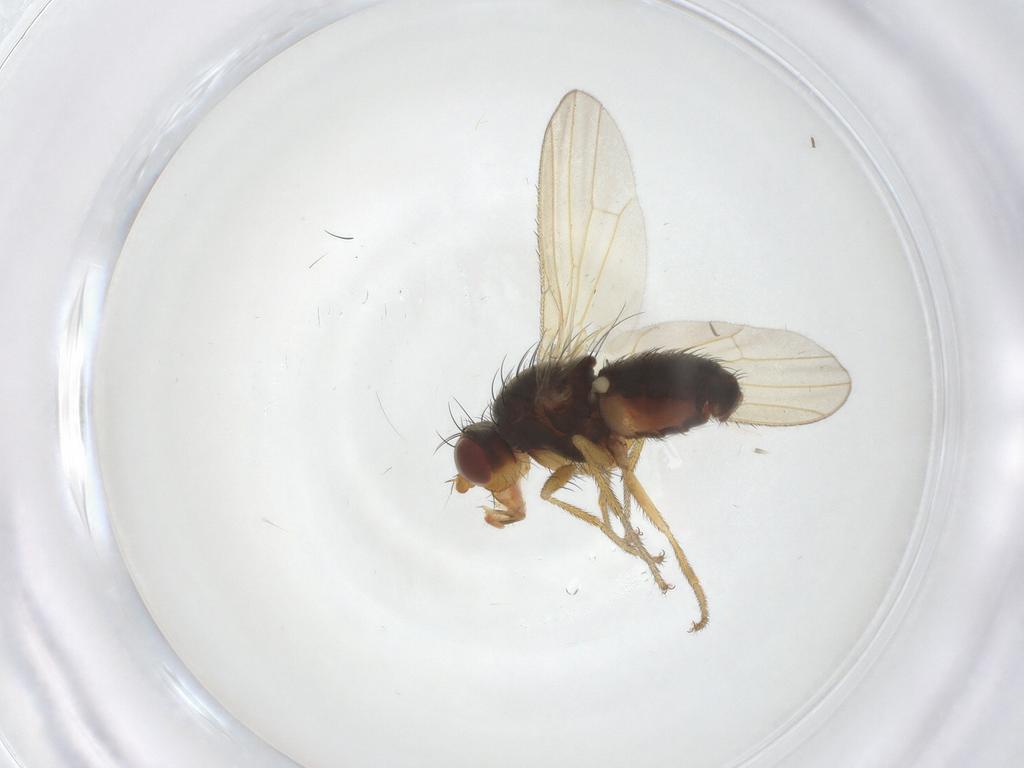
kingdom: Animalia
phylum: Arthropoda
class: Insecta
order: Diptera
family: Heleomyzidae
